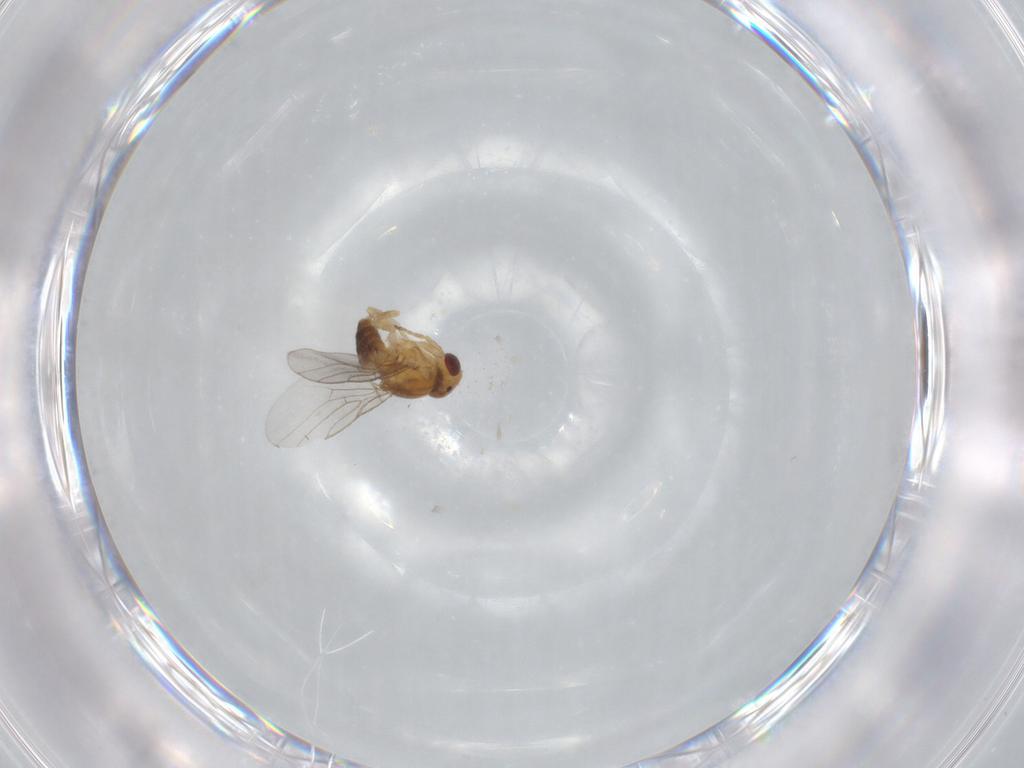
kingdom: Animalia
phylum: Arthropoda
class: Insecta
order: Diptera
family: Chloropidae
